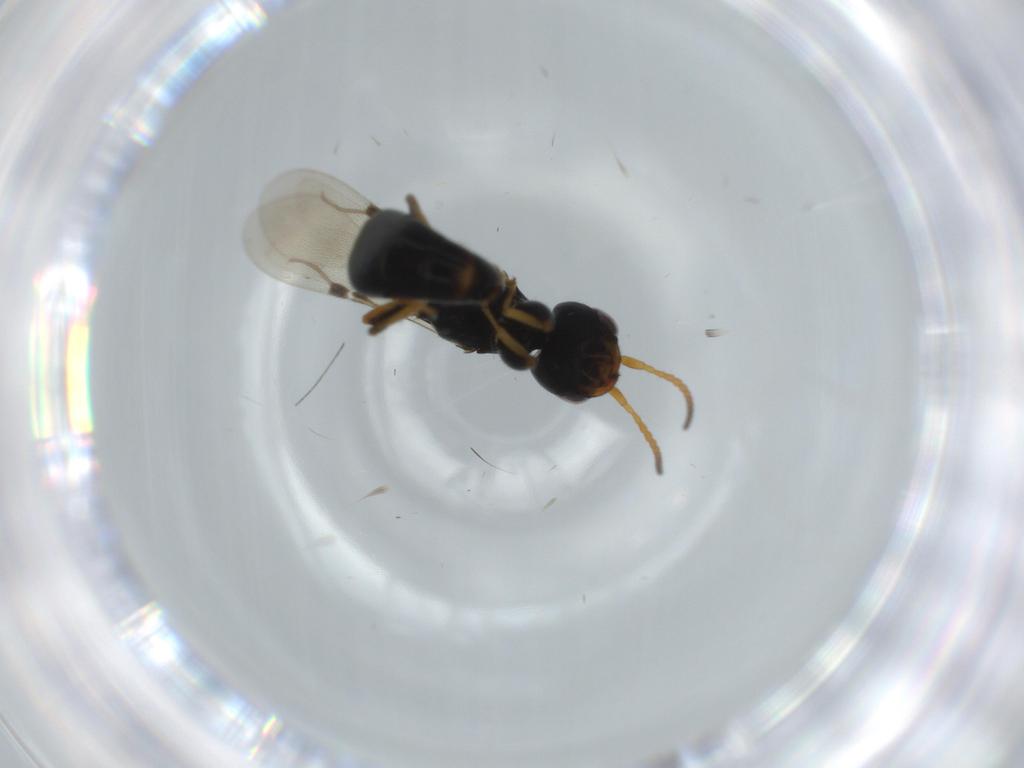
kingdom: Animalia
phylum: Arthropoda
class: Insecta
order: Hymenoptera
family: Bethylidae
